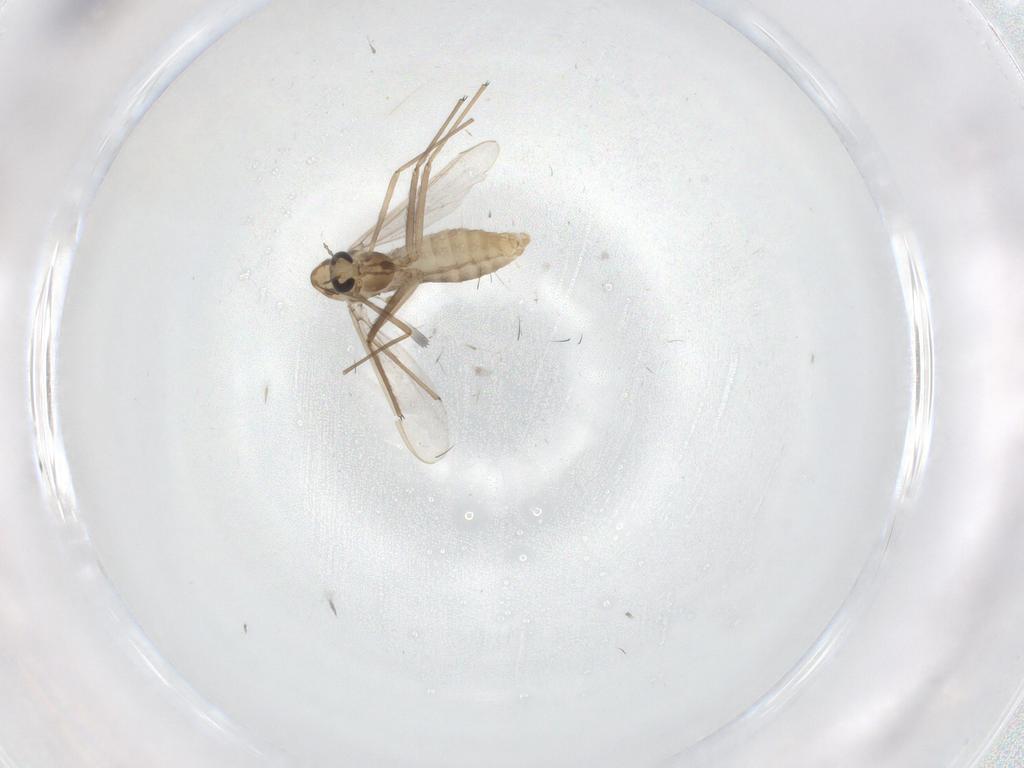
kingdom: Animalia
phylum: Arthropoda
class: Insecta
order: Diptera
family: Chironomidae
